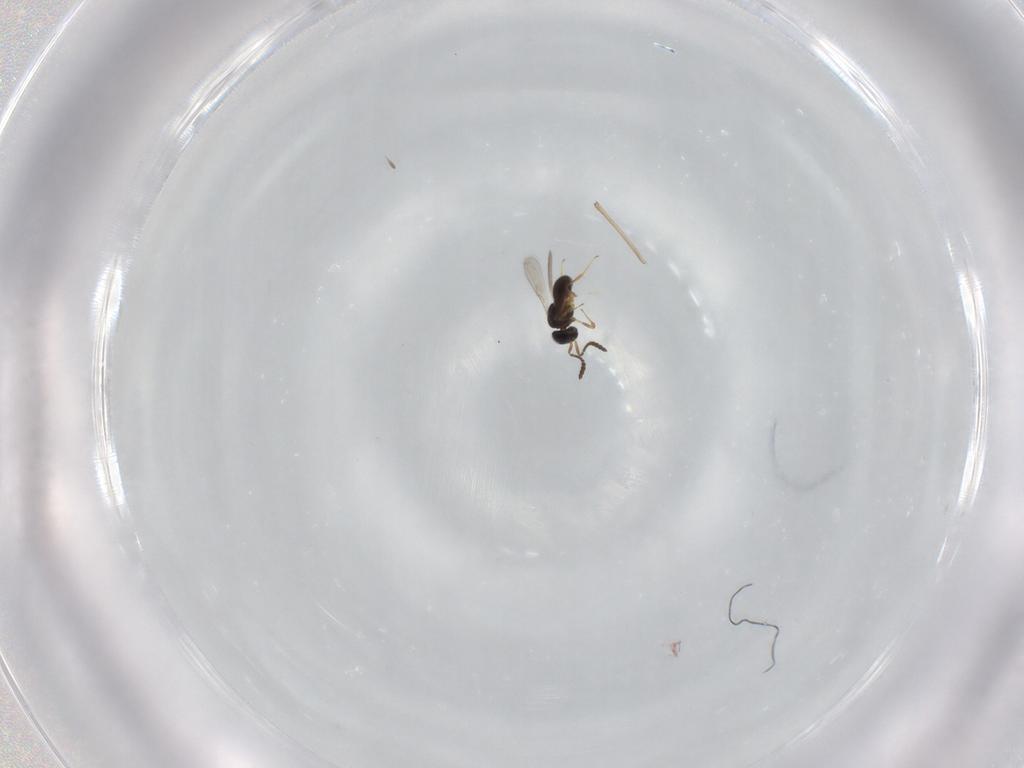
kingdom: Animalia
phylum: Arthropoda
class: Insecta
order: Hymenoptera
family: Scelionidae
